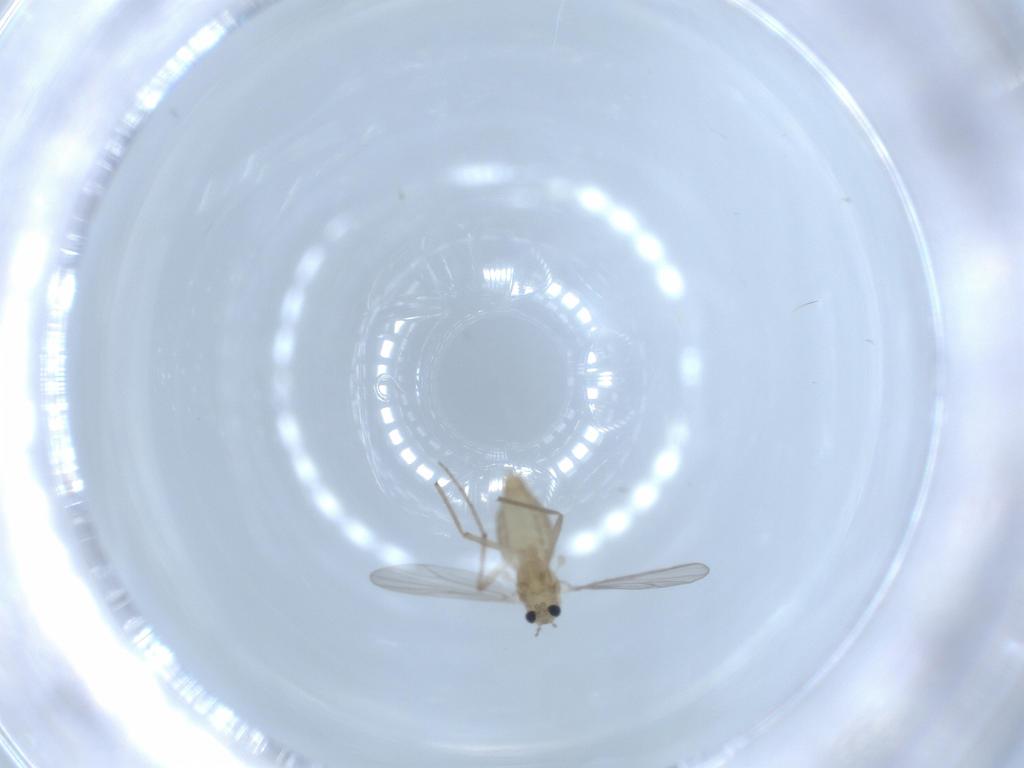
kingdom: Animalia
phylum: Arthropoda
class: Insecta
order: Diptera
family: Chironomidae
